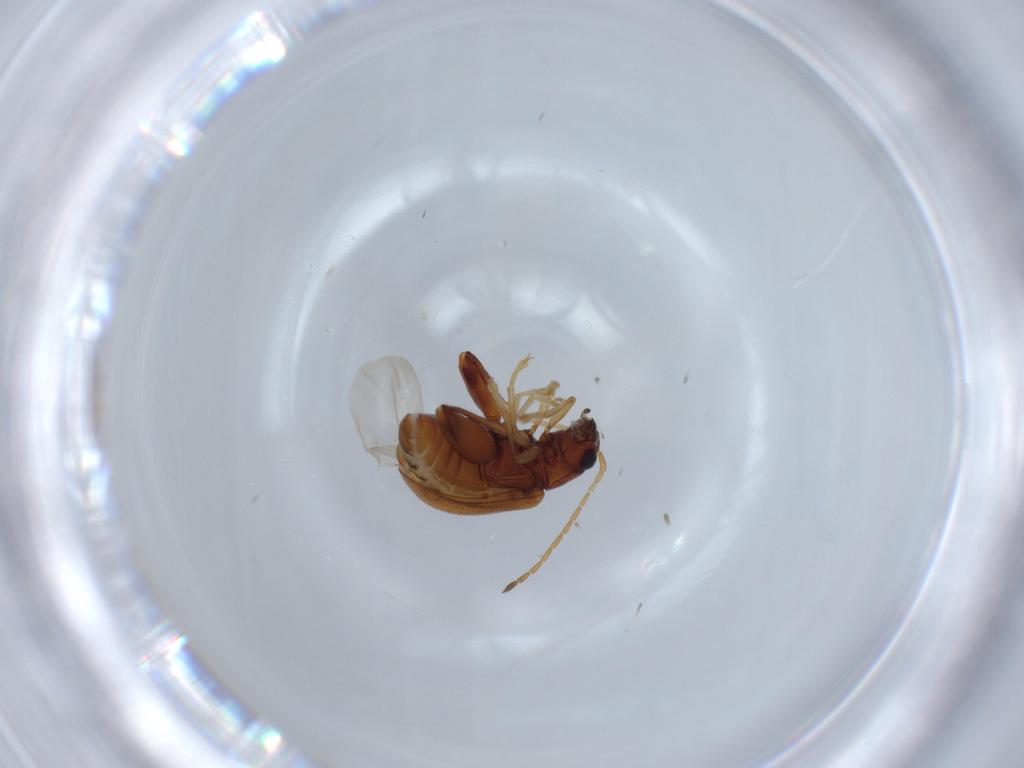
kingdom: Animalia
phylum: Arthropoda
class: Insecta
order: Coleoptera
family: Chrysomelidae
